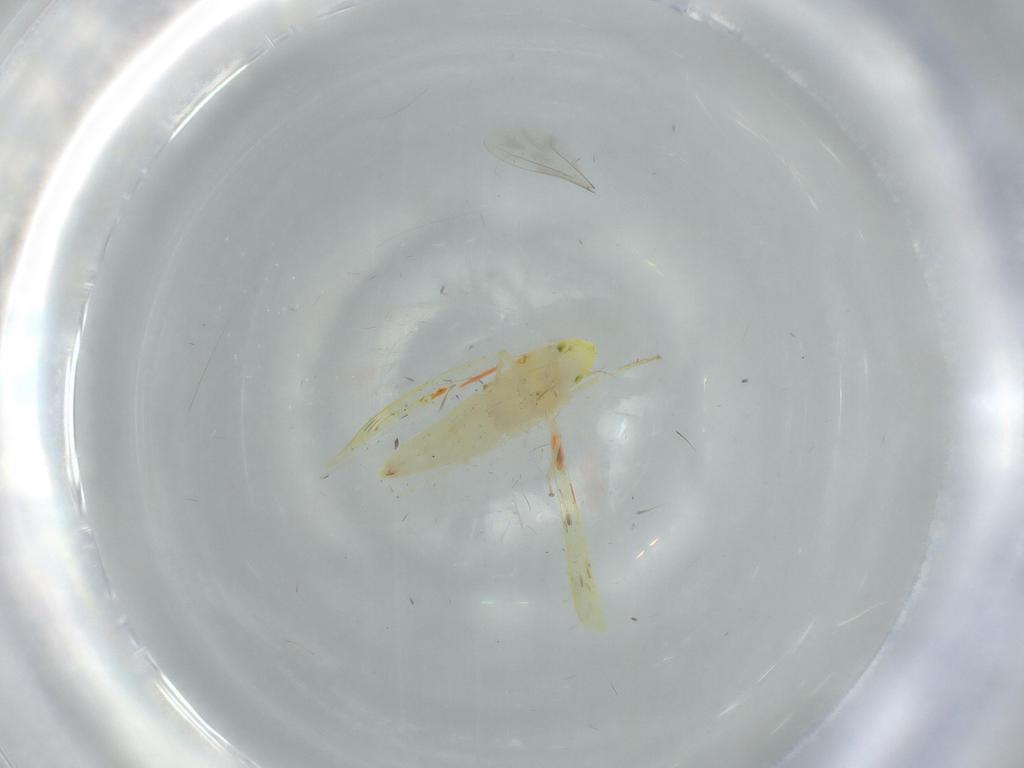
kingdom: Animalia
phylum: Arthropoda
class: Insecta
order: Hemiptera
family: Cicadellidae
